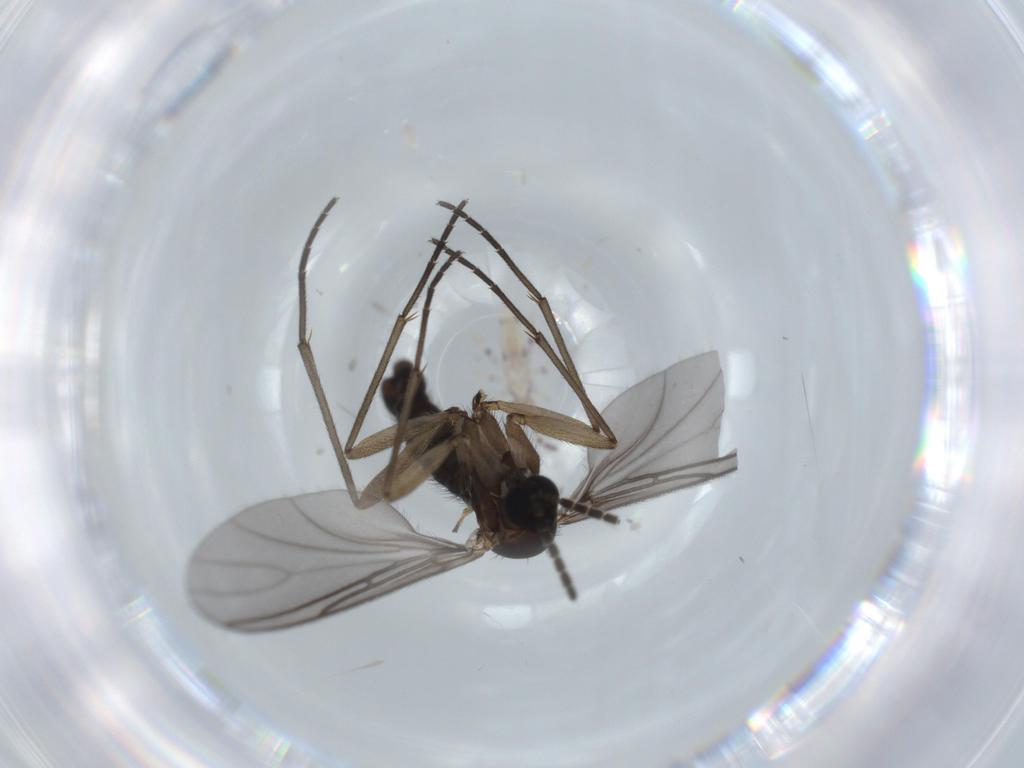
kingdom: Animalia
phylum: Arthropoda
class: Insecta
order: Diptera
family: Sciaridae
